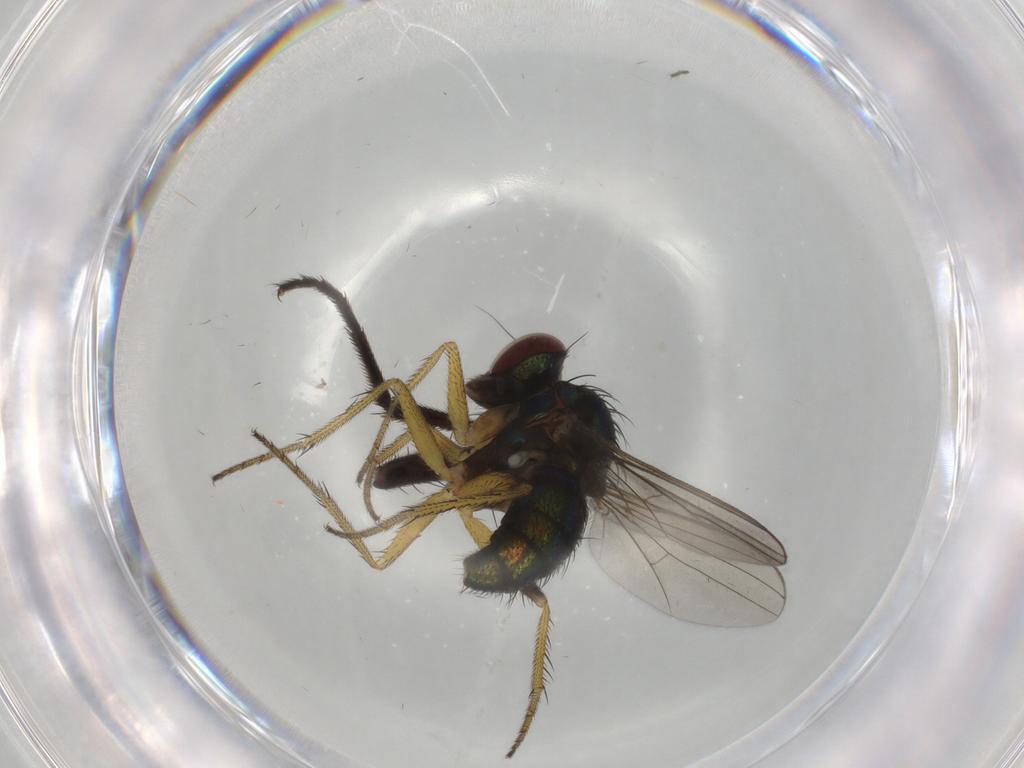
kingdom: Animalia
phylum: Arthropoda
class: Insecta
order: Diptera
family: Dolichopodidae
